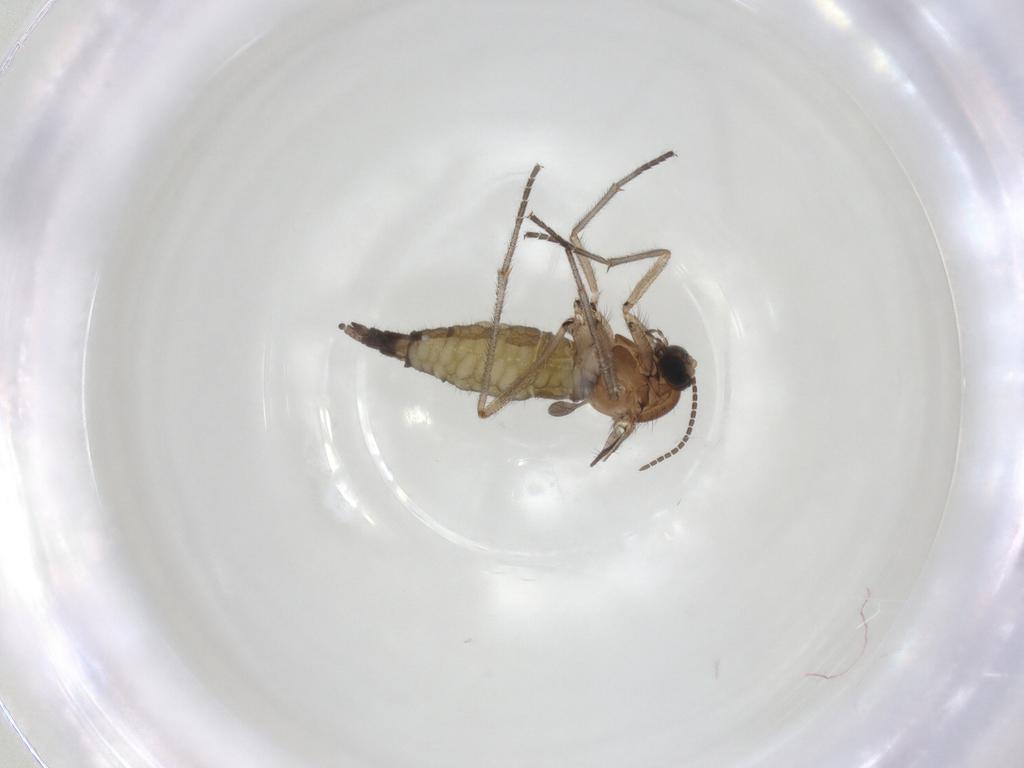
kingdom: Animalia
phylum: Arthropoda
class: Insecta
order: Diptera
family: Sciaridae
